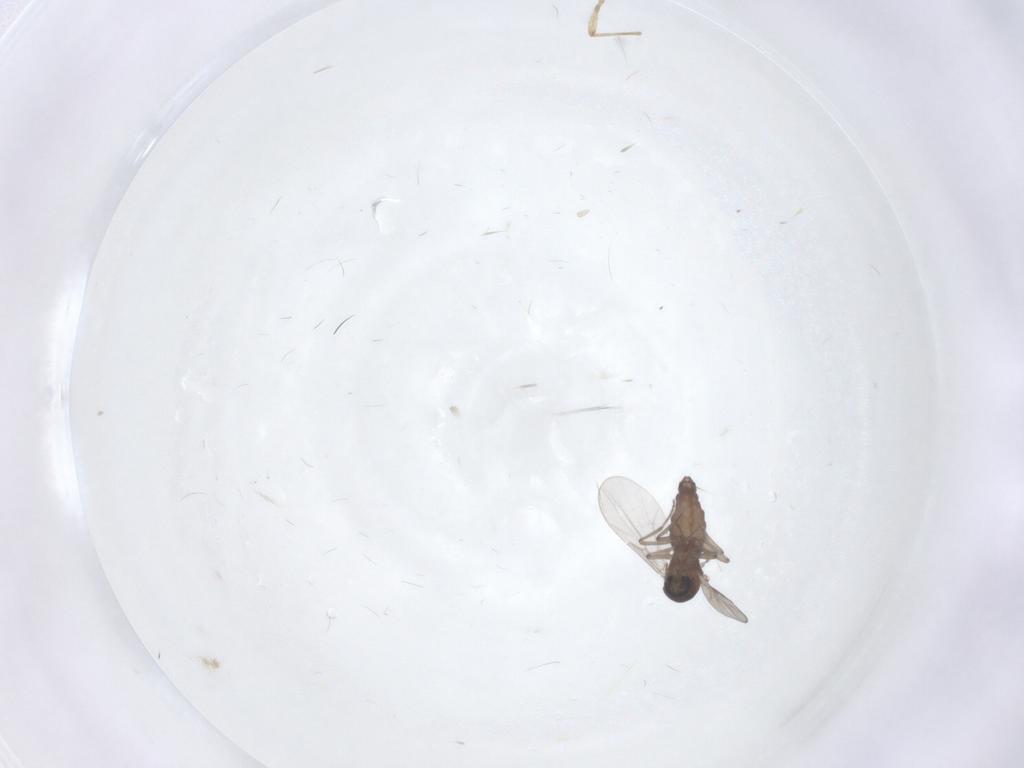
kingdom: Animalia
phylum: Arthropoda
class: Insecta
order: Diptera
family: Ceratopogonidae
